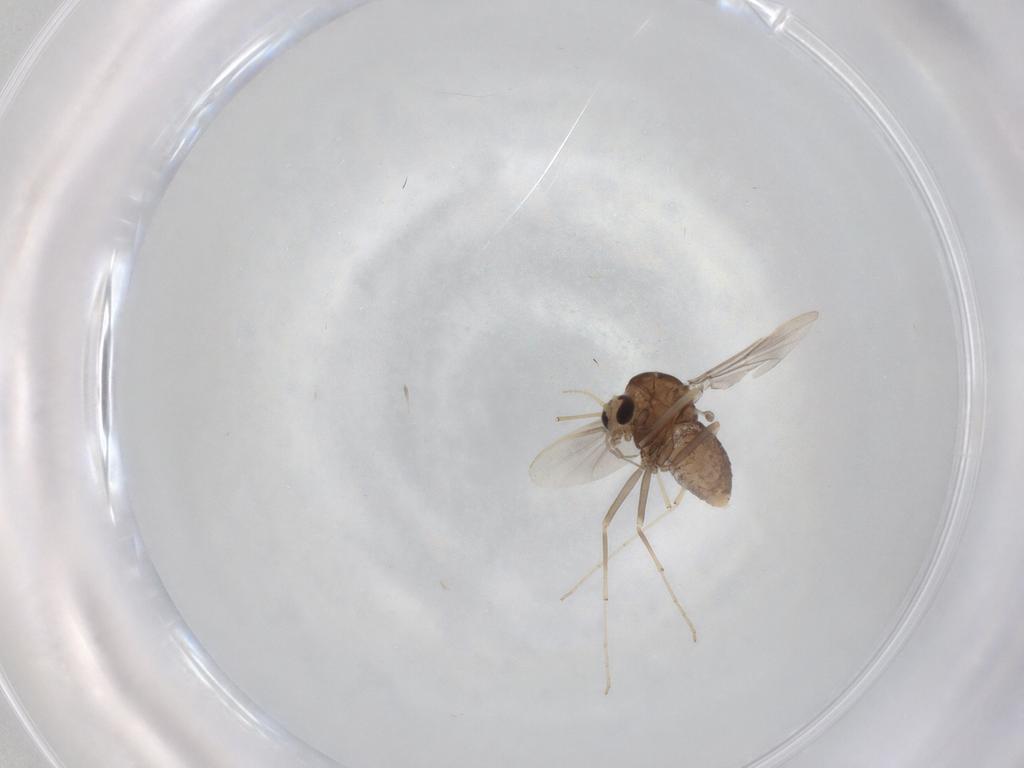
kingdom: Animalia
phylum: Arthropoda
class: Insecta
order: Diptera
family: Chironomidae
